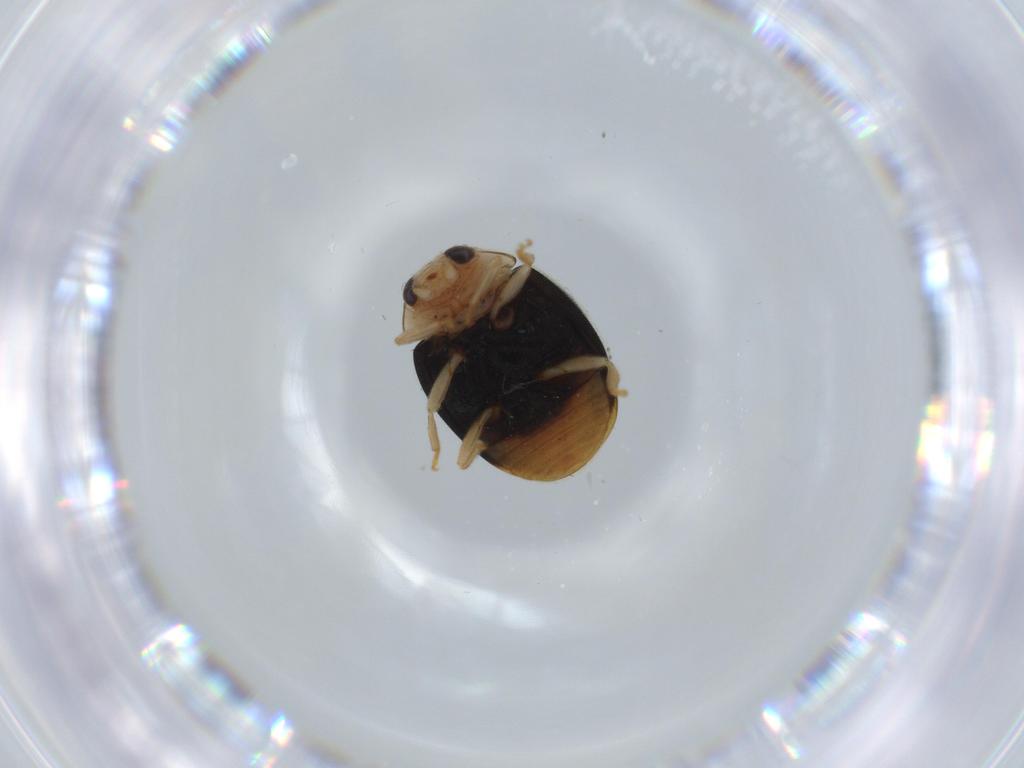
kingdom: Animalia
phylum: Arthropoda
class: Insecta
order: Coleoptera
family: Coccinellidae
